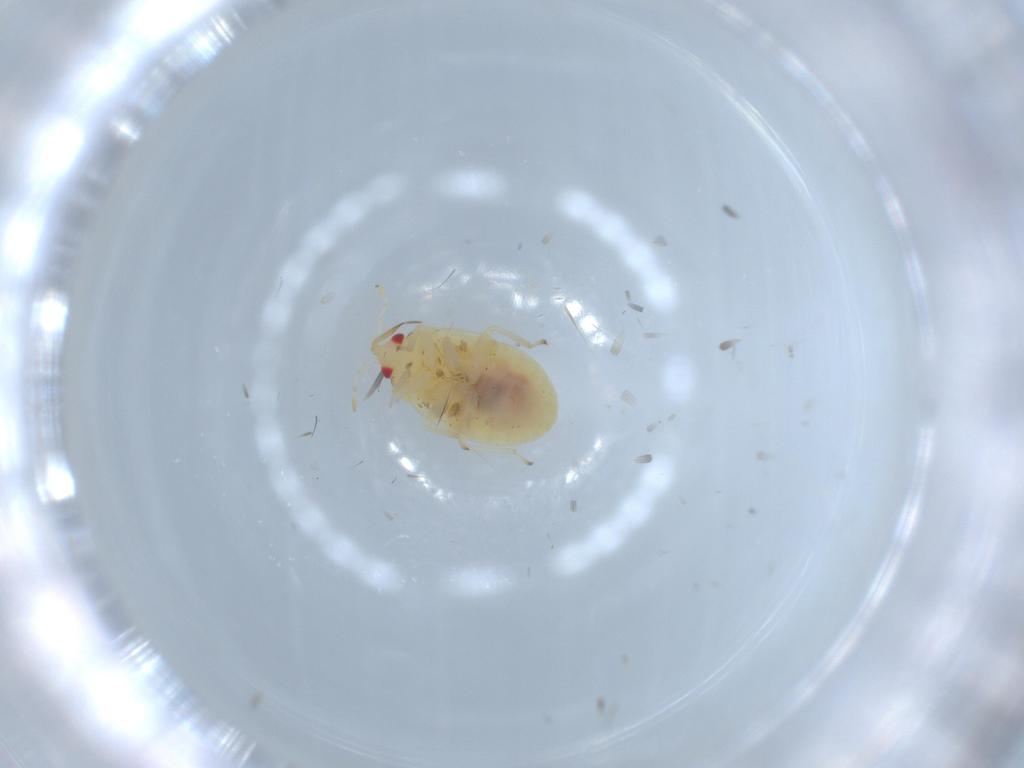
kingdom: Animalia
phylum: Arthropoda
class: Insecta
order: Hemiptera
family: Anthocoridae
